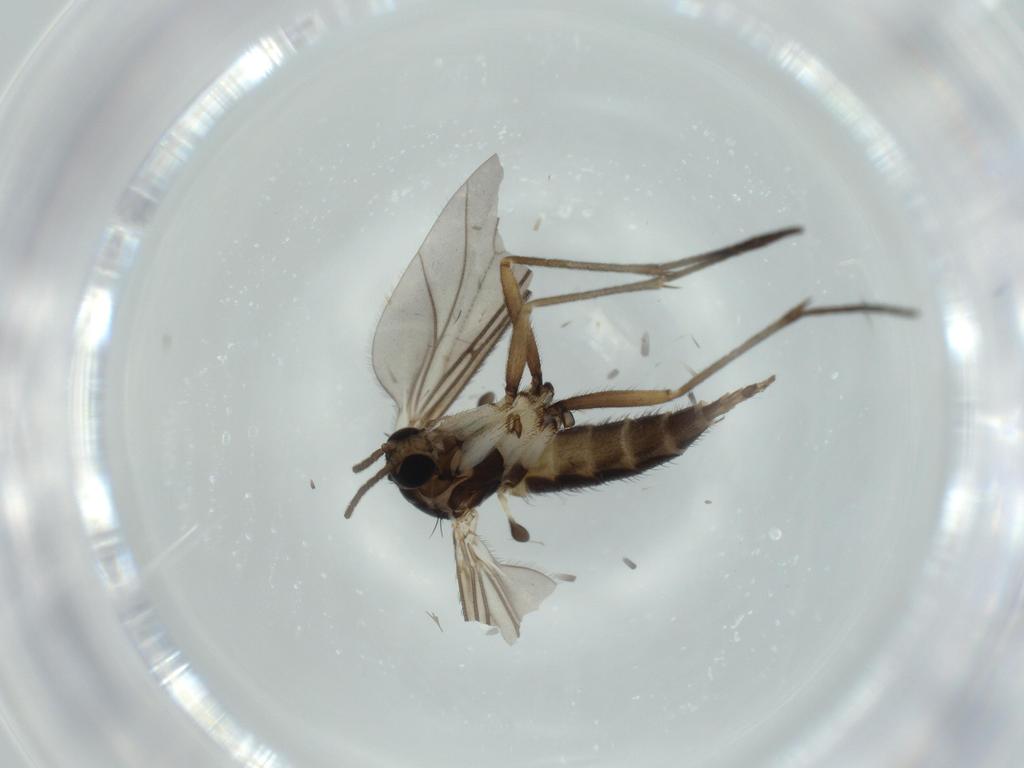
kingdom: Animalia
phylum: Arthropoda
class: Insecta
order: Diptera
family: Sciaridae
